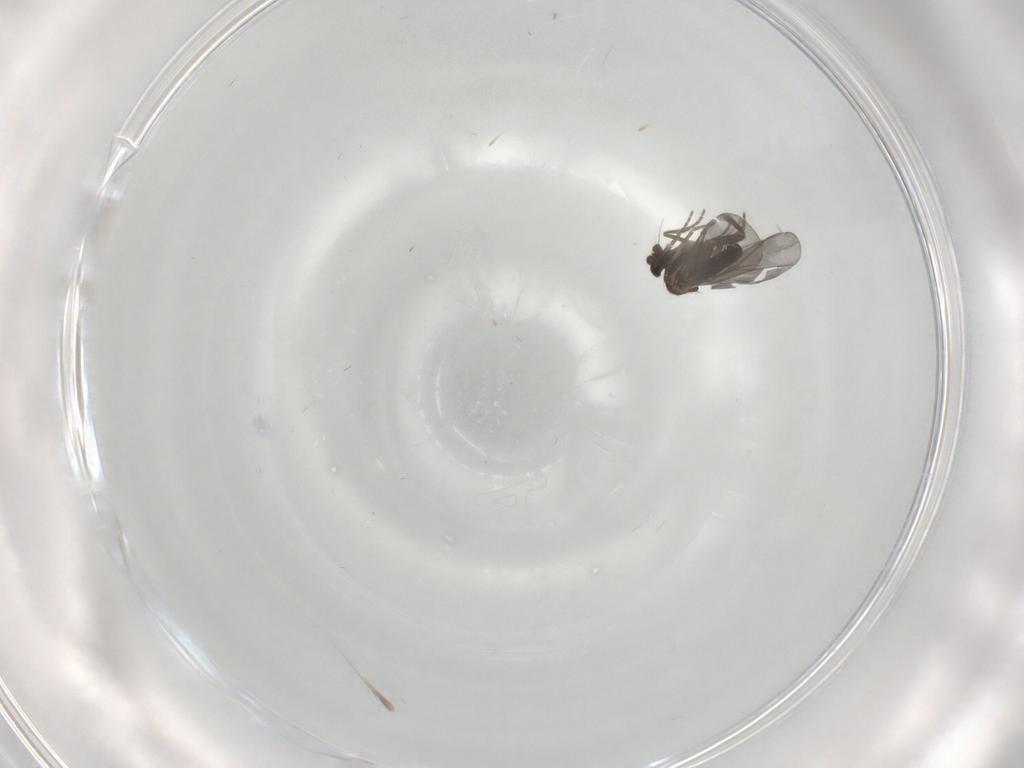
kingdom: Animalia
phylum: Arthropoda
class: Insecta
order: Diptera
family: Phoridae
